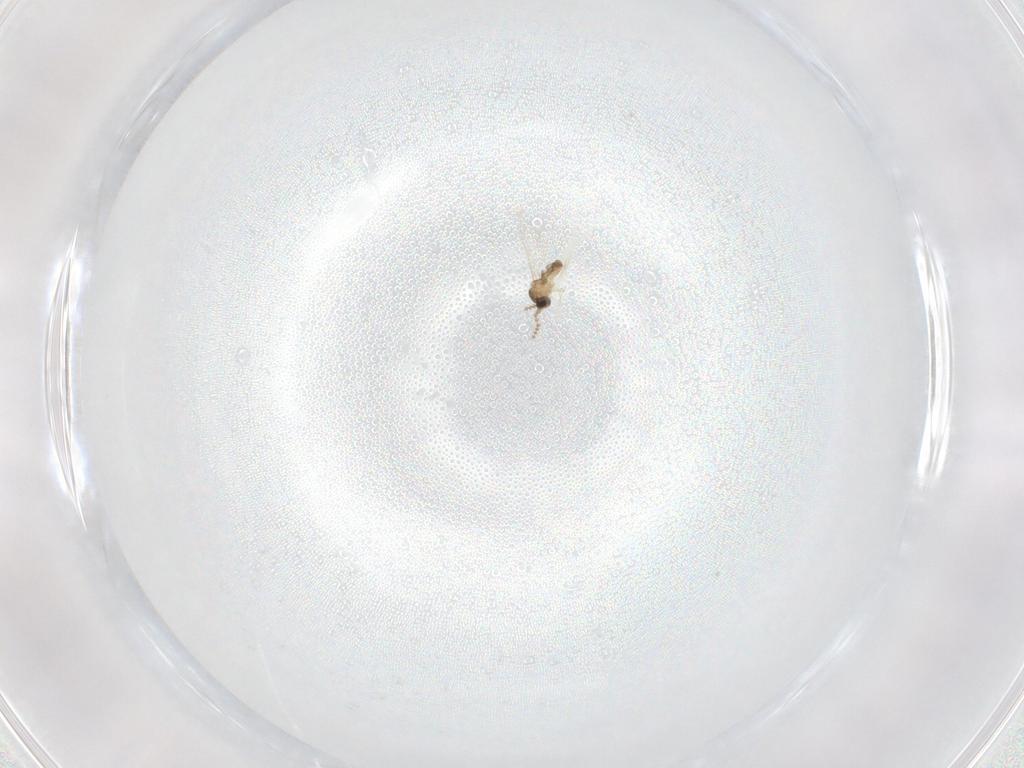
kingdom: Animalia
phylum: Arthropoda
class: Insecta
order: Diptera
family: Cecidomyiidae
